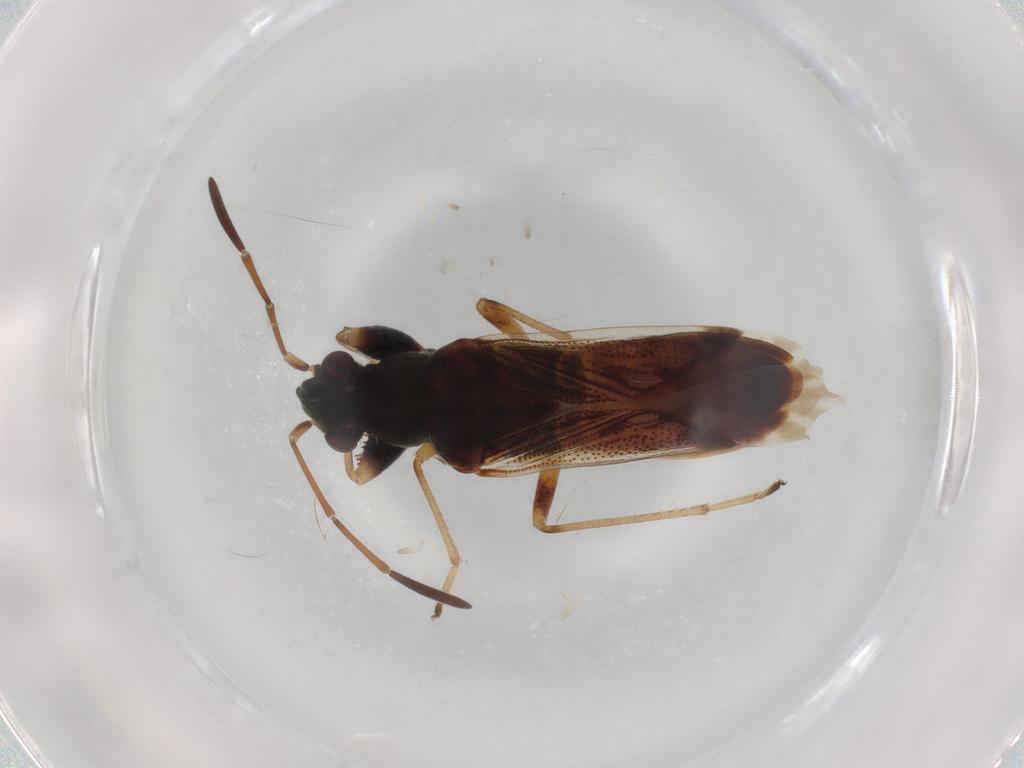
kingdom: Animalia
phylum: Arthropoda
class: Insecta
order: Hemiptera
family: Rhyparochromidae
